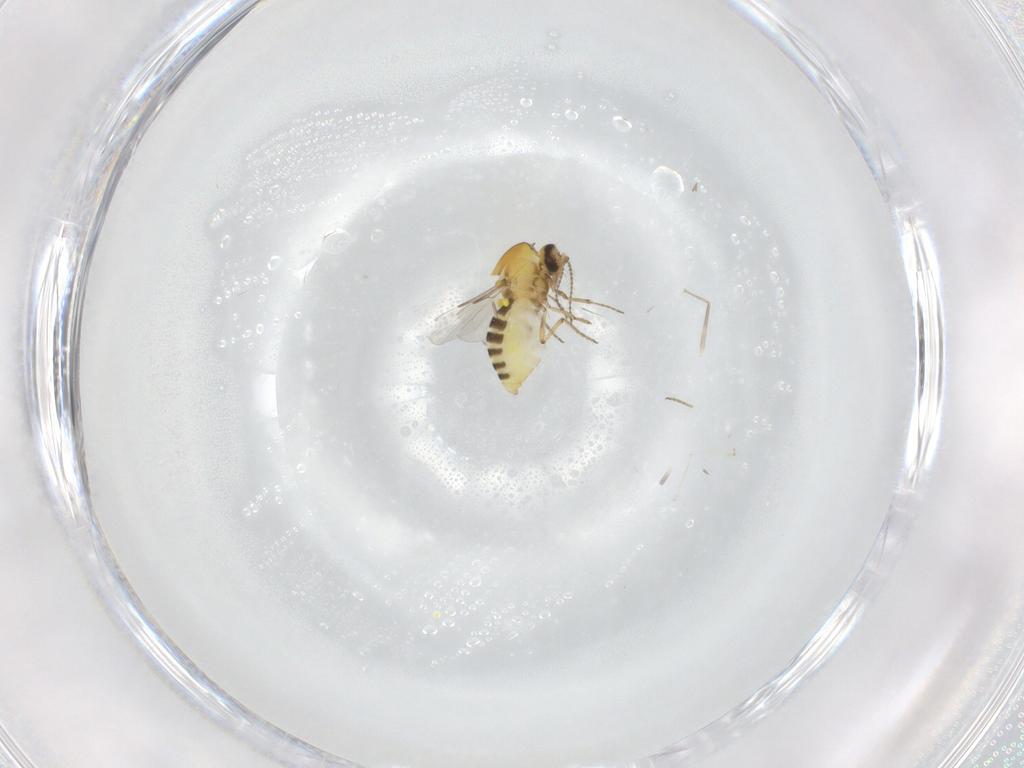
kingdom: Animalia
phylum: Arthropoda
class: Insecta
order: Diptera
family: Ceratopogonidae
